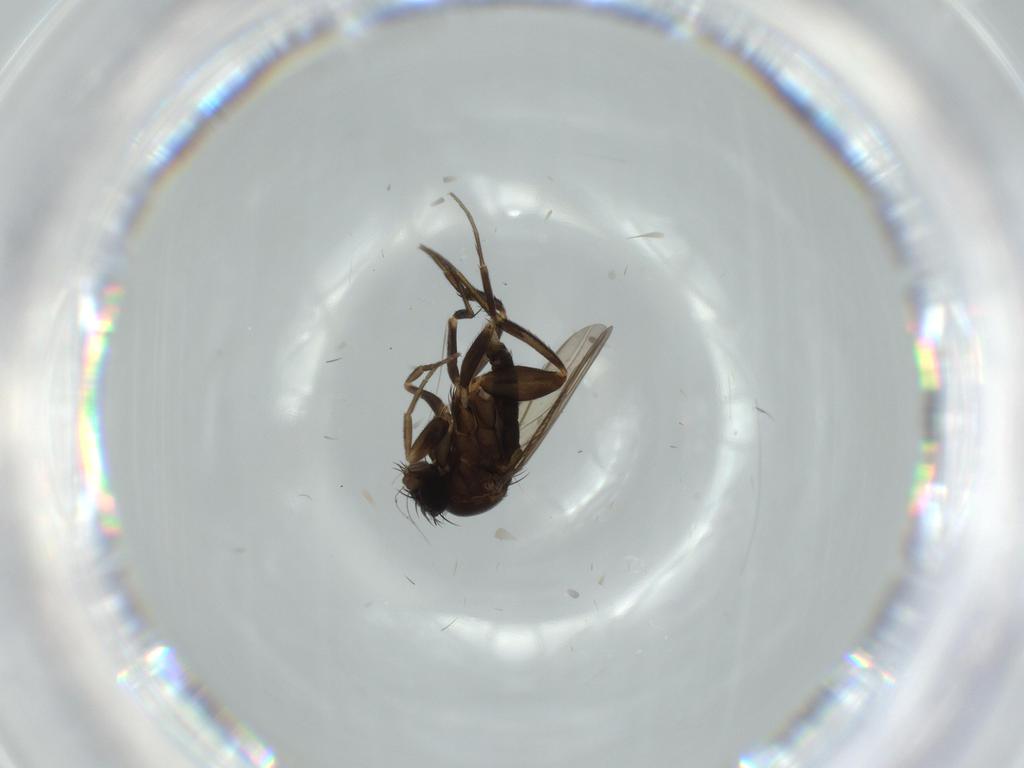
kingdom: Animalia
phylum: Arthropoda
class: Insecta
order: Diptera
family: Phoridae
